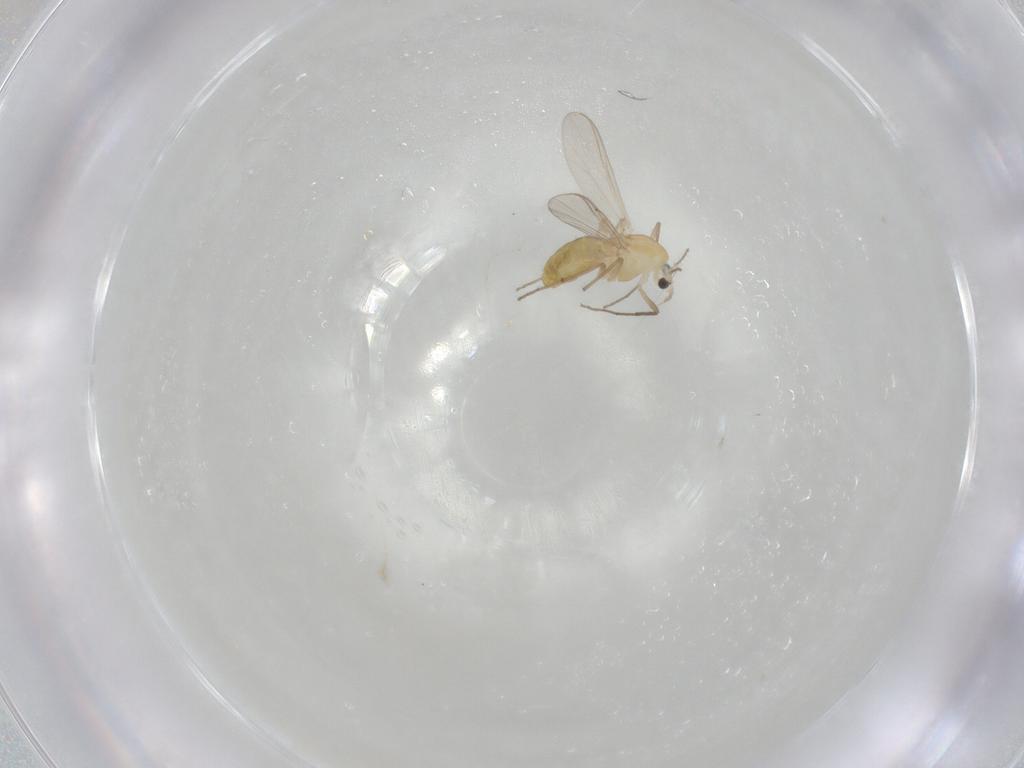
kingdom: Animalia
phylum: Arthropoda
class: Insecta
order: Diptera
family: Chironomidae
